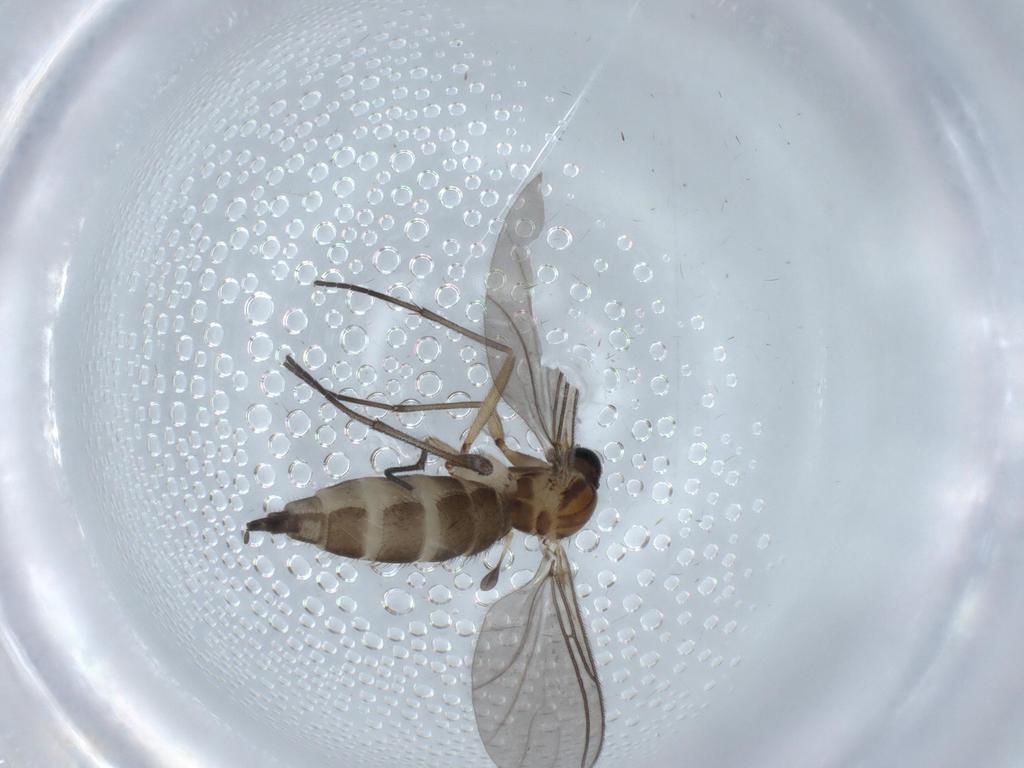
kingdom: Animalia
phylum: Arthropoda
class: Insecta
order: Diptera
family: Sciaridae
